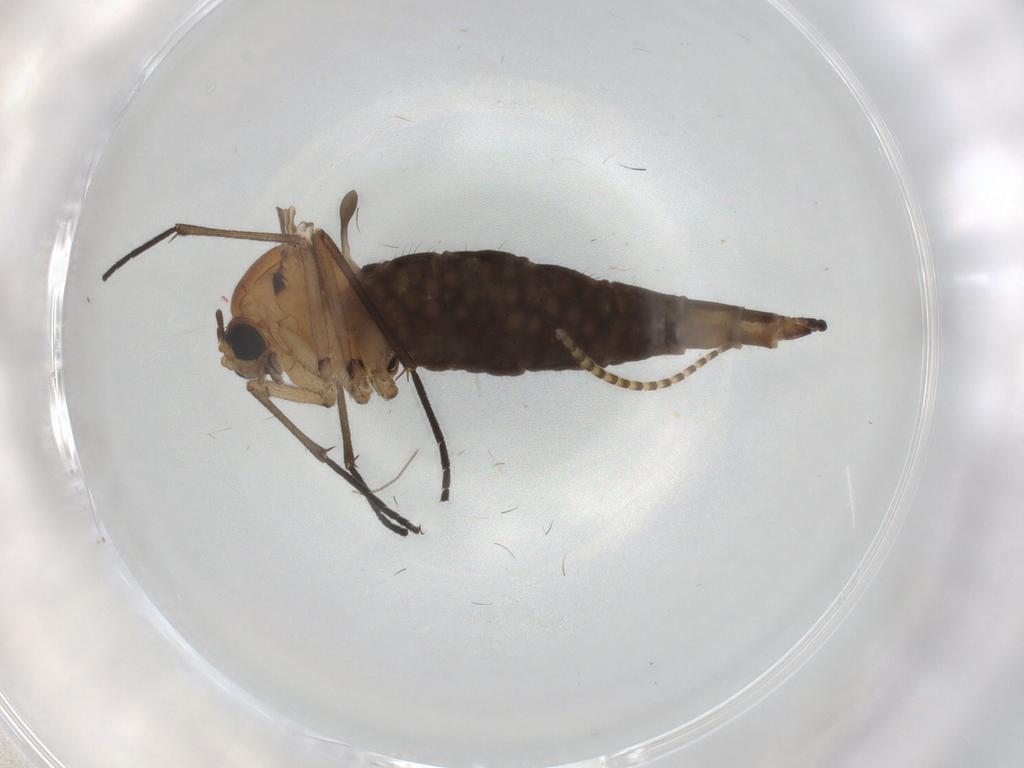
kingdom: Animalia
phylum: Arthropoda
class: Insecta
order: Diptera
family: Sciaridae
